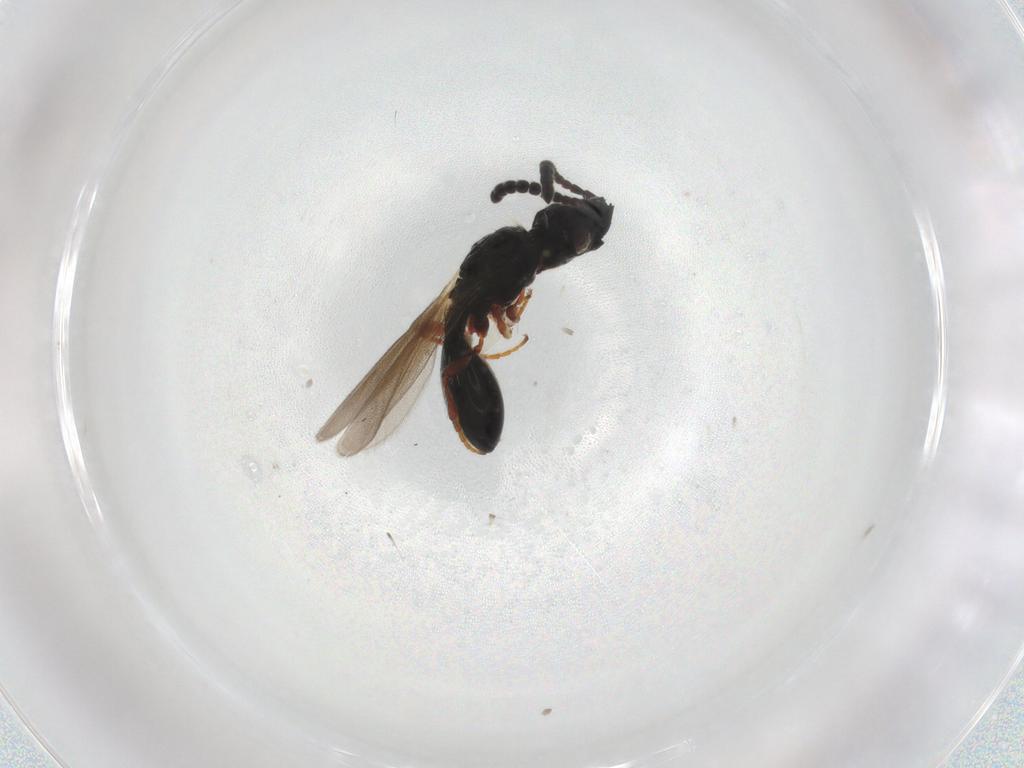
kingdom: Animalia
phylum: Arthropoda
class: Insecta
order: Hymenoptera
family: Diapriidae
